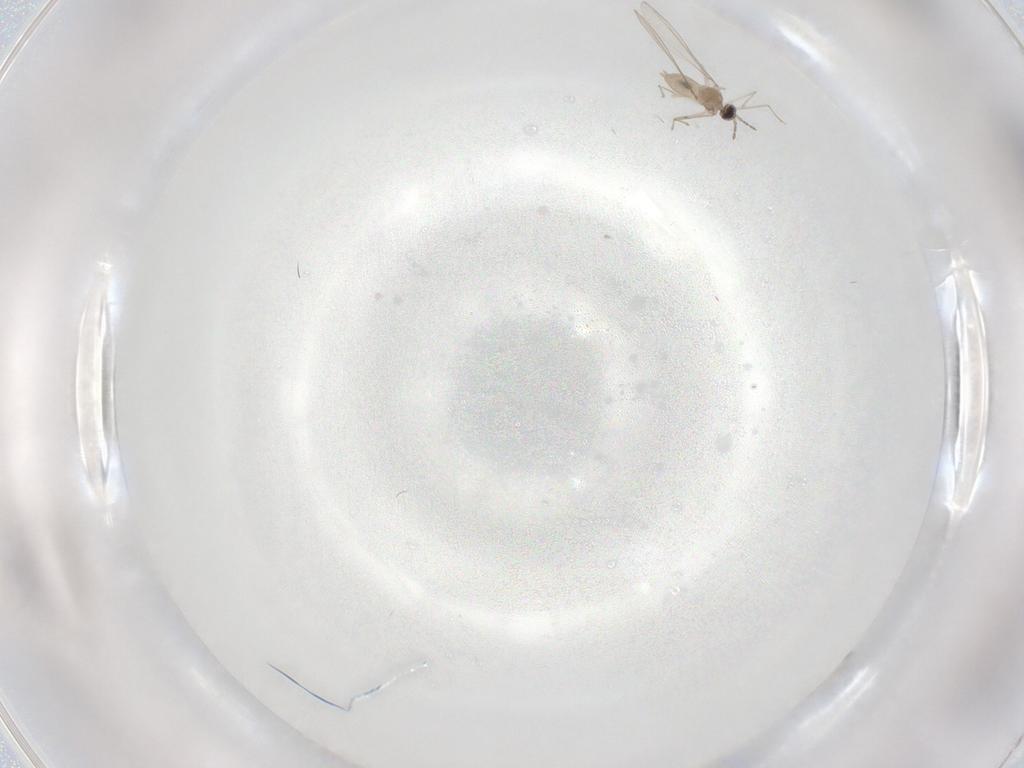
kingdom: Animalia
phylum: Arthropoda
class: Insecta
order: Diptera
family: Cecidomyiidae
